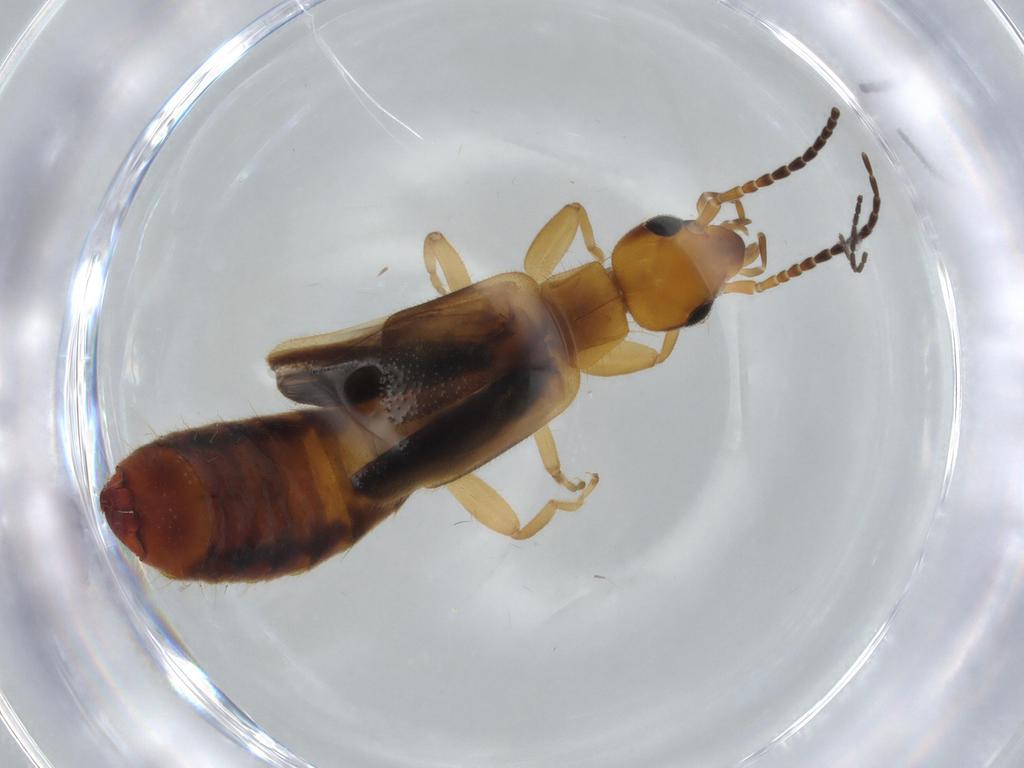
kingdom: Animalia
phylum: Arthropoda
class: Insecta
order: Dermaptera
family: Forficulidae
